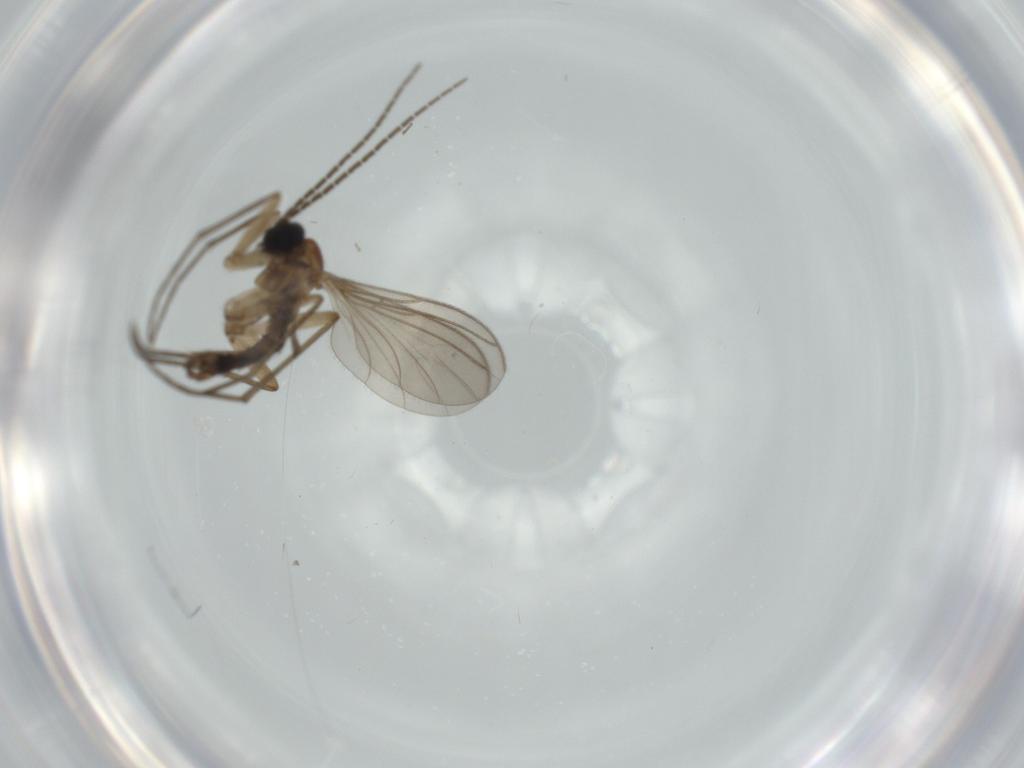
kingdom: Animalia
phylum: Arthropoda
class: Insecta
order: Diptera
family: Sciaridae
